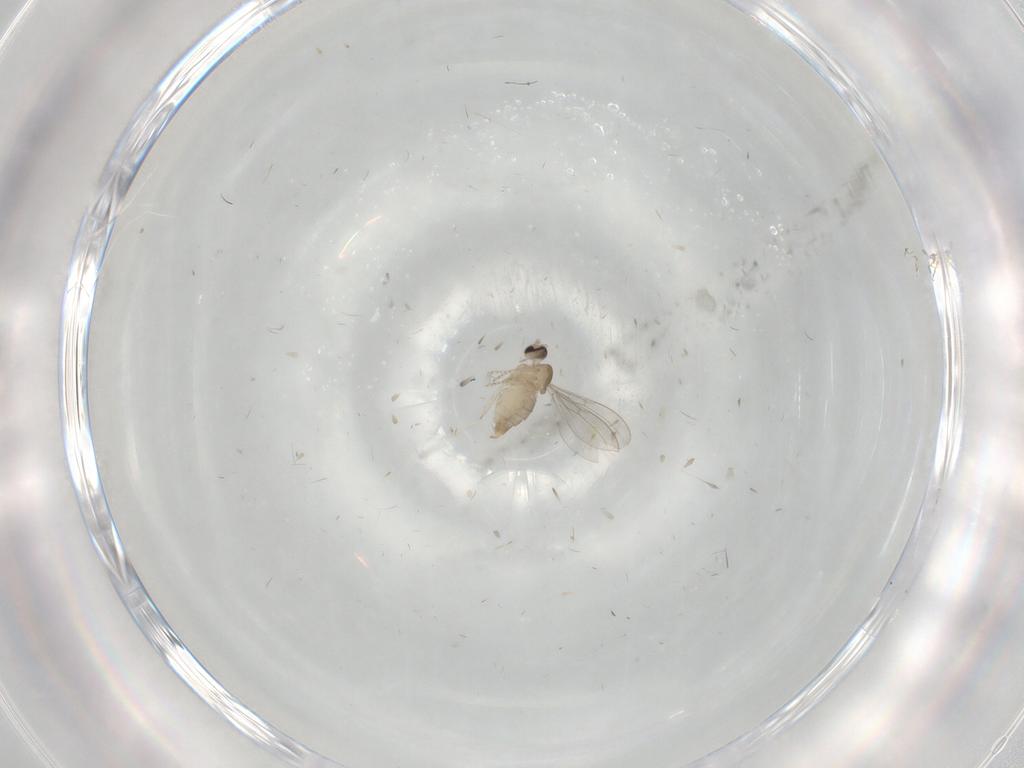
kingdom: Animalia
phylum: Arthropoda
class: Insecta
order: Diptera
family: Cecidomyiidae
